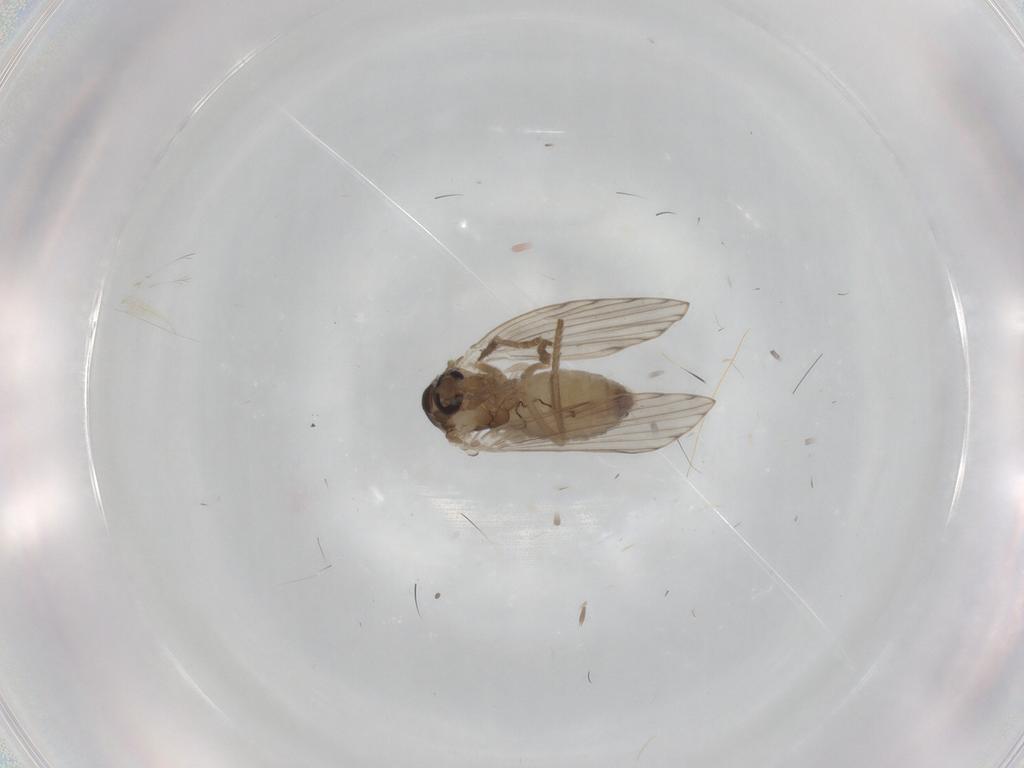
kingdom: Animalia
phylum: Arthropoda
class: Insecta
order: Diptera
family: Psychodidae
